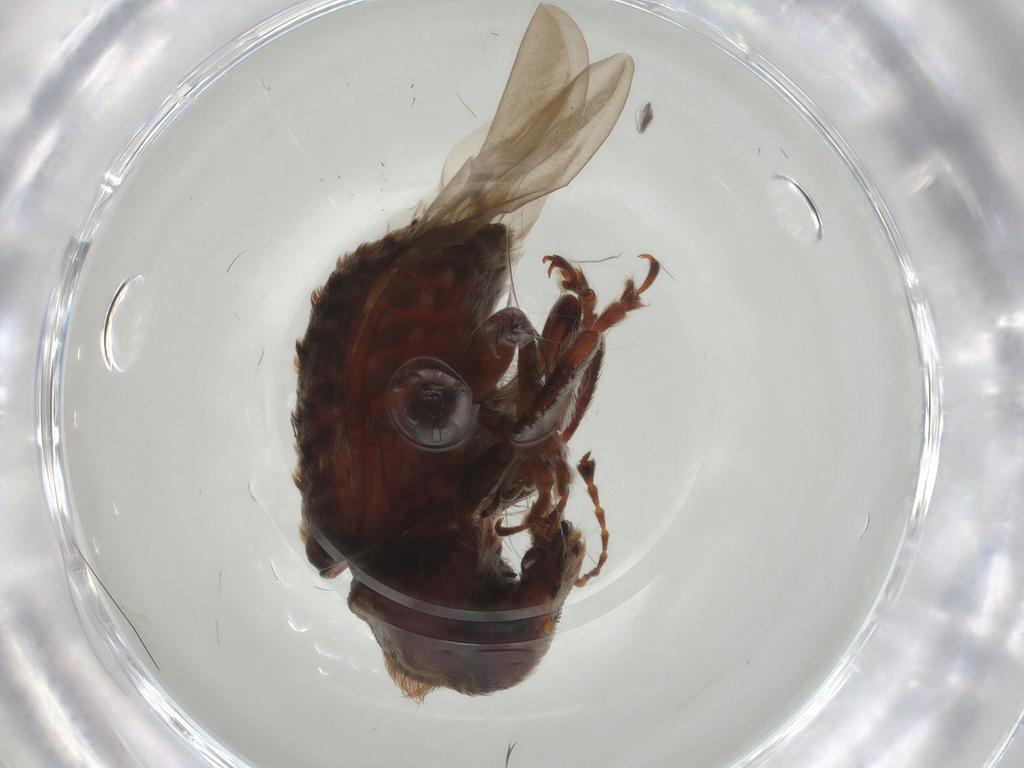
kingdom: Animalia
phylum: Arthropoda
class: Insecta
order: Coleoptera
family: Anthribidae
